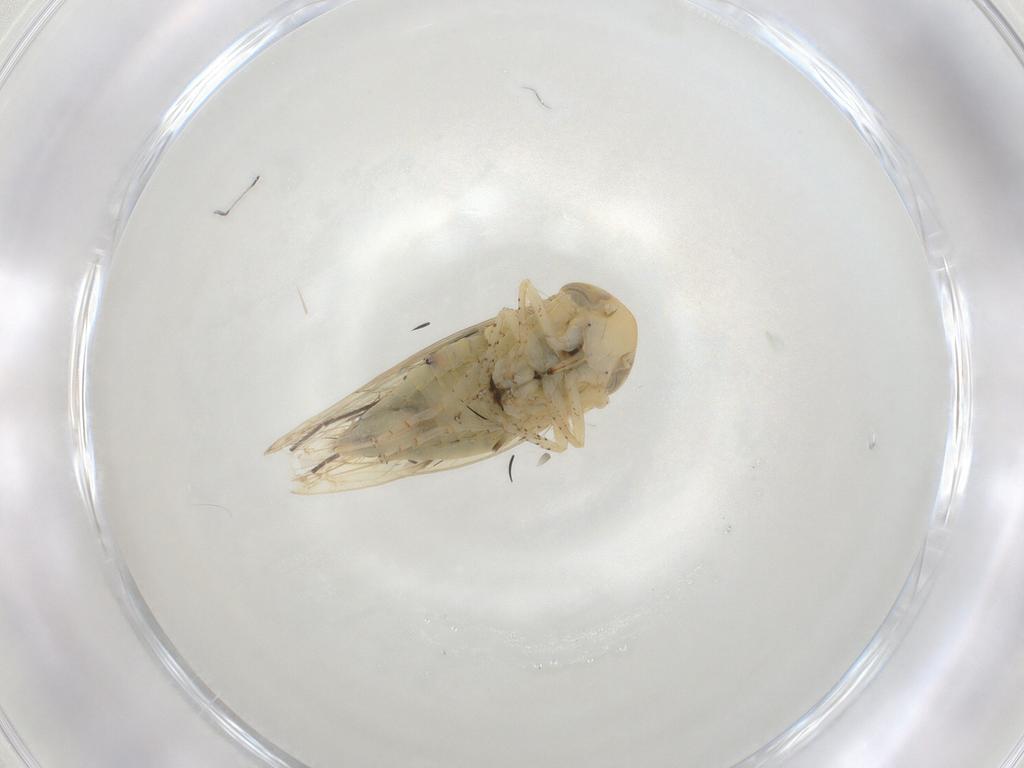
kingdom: Animalia
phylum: Arthropoda
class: Insecta
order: Hemiptera
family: Cicadellidae
